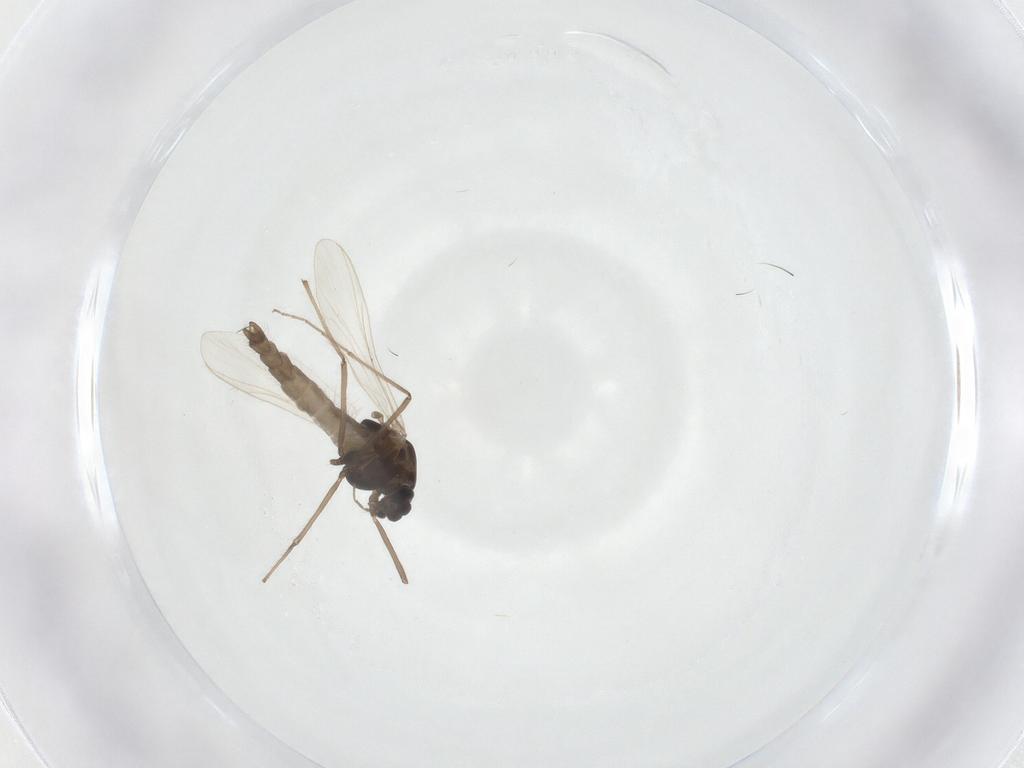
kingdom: Animalia
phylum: Arthropoda
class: Insecta
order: Diptera
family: Chironomidae
